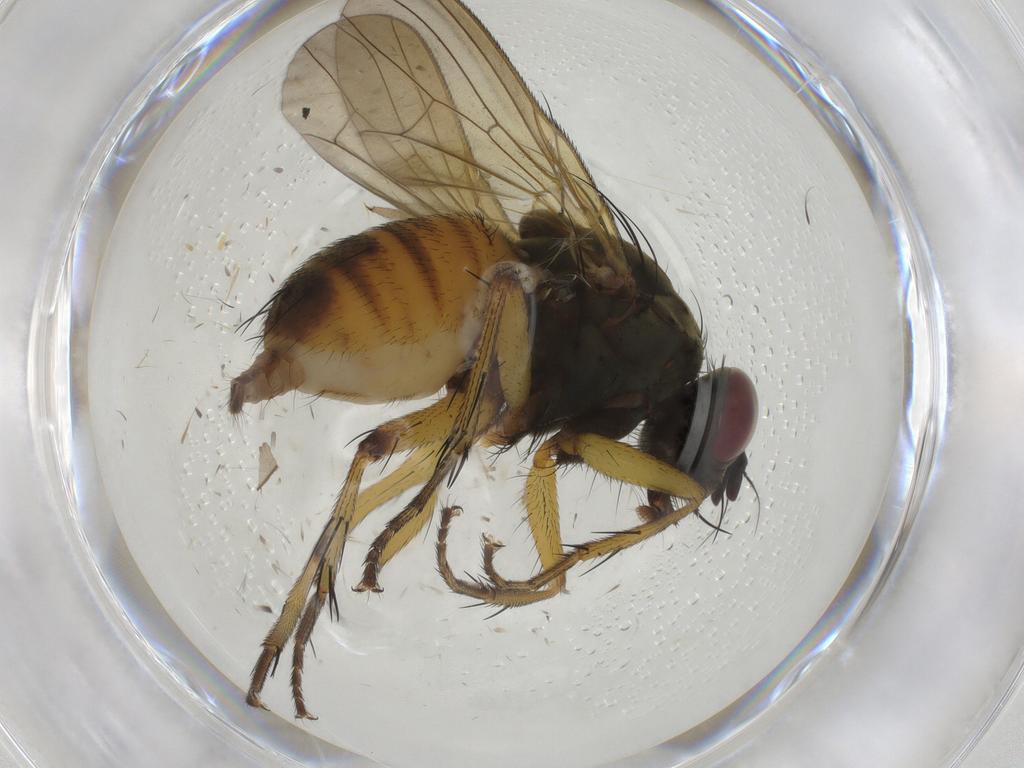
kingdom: Animalia
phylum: Arthropoda
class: Insecta
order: Diptera
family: Muscidae
